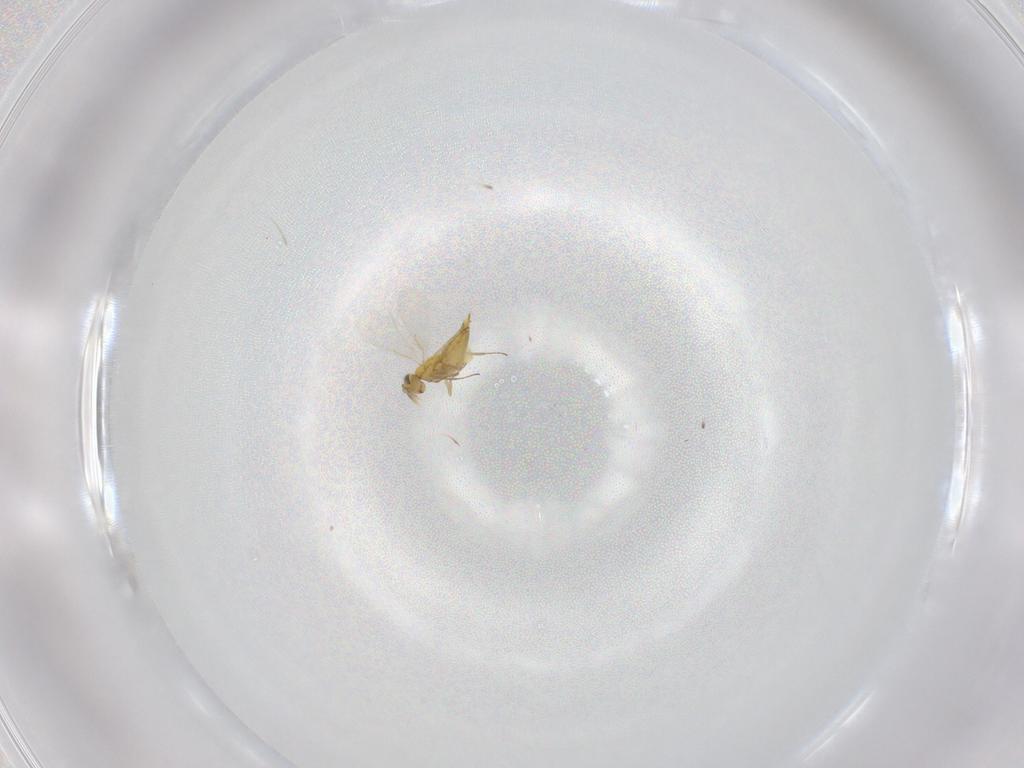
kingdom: Animalia
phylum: Arthropoda
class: Insecta
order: Hymenoptera
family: Aphelinidae
